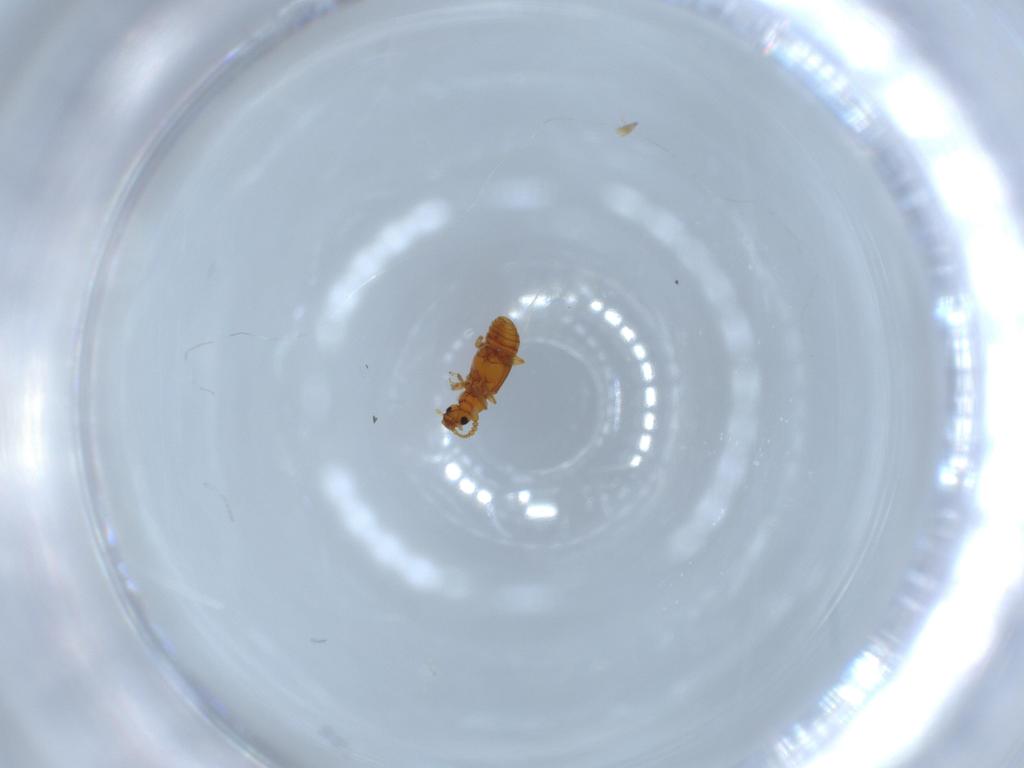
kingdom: Animalia
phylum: Arthropoda
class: Insecta
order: Coleoptera
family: Staphylinidae
